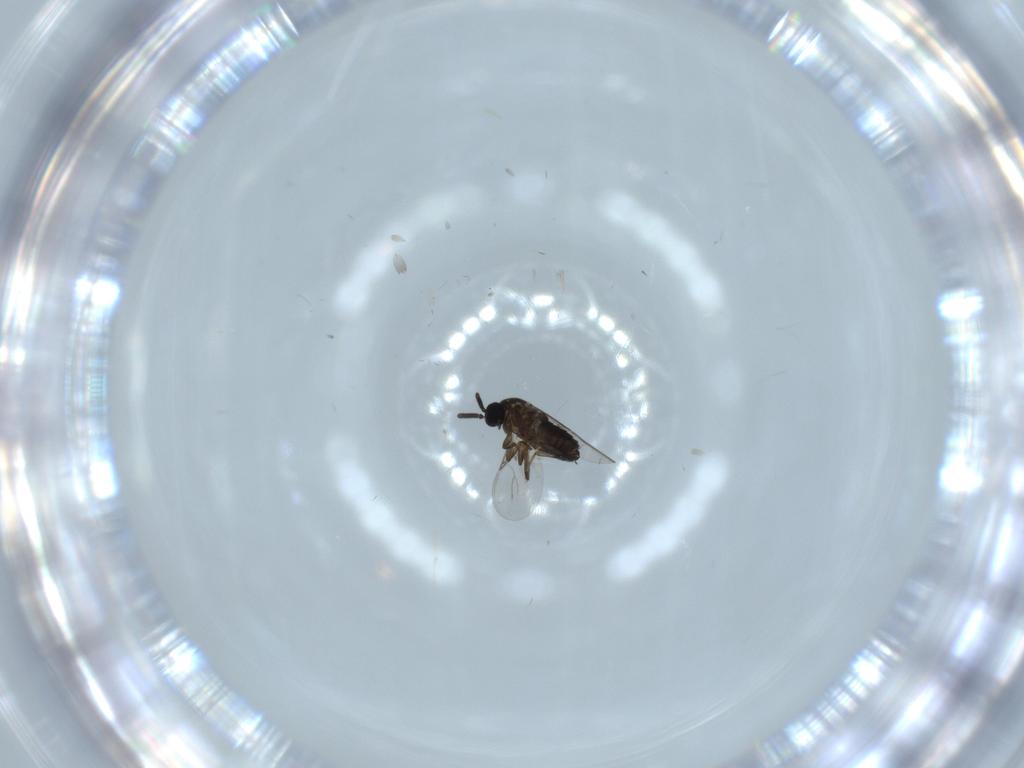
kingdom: Animalia
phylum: Arthropoda
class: Insecta
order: Diptera
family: Scatopsidae
